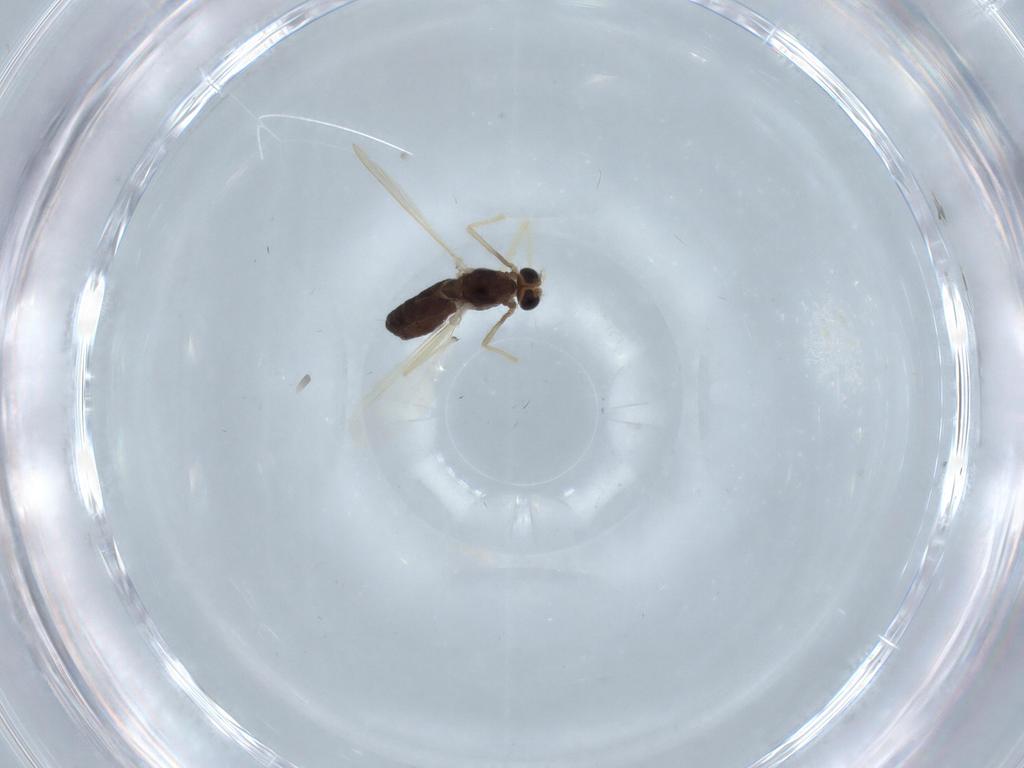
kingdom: Animalia
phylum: Arthropoda
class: Insecta
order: Diptera
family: Chironomidae
